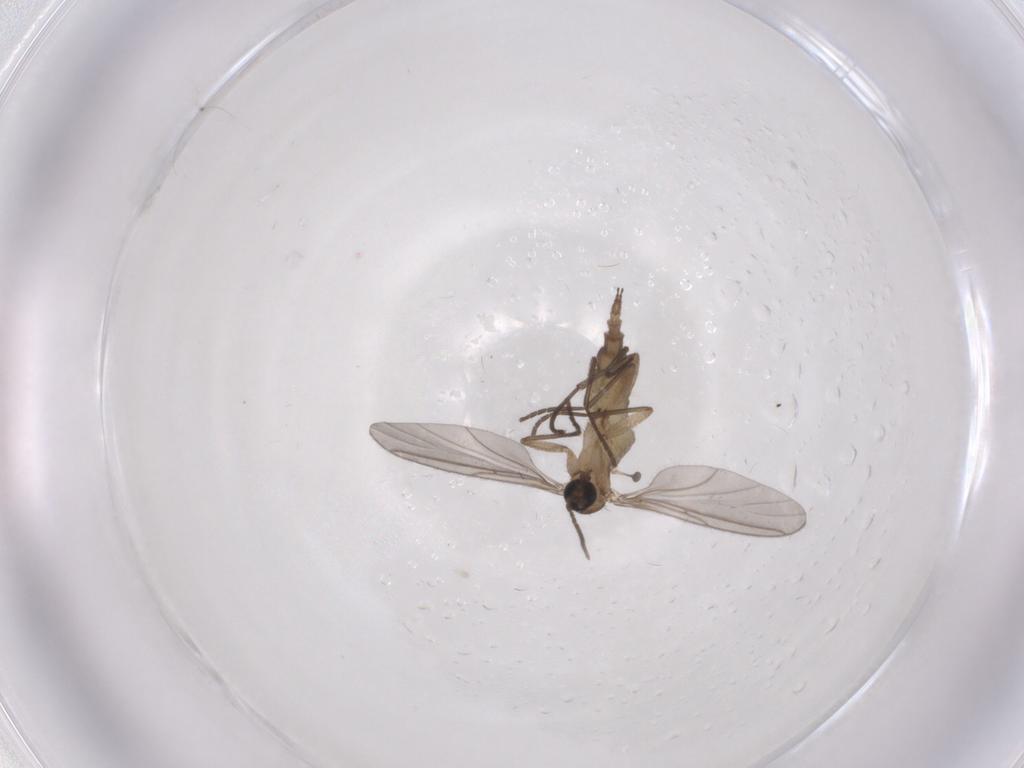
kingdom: Animalia
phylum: Arthropoda
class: Insecta
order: Diptera
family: Sciaridae
